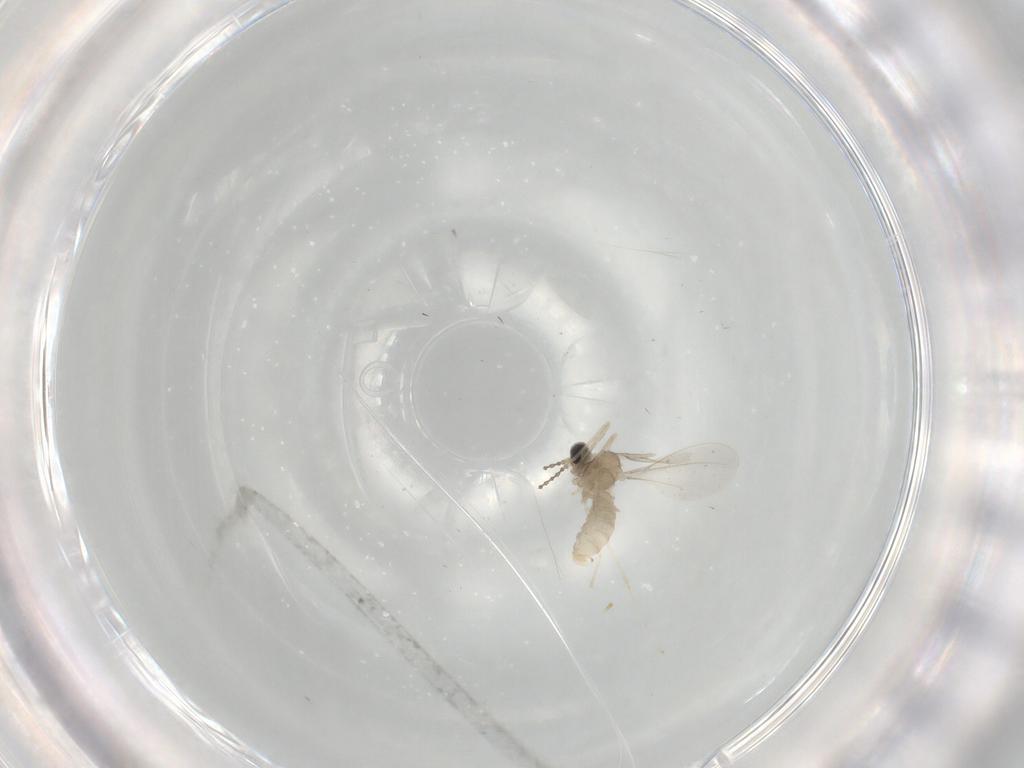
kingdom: Animalia
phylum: Arthropoda
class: Insecta
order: Diptera
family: Cecidomyiidae
